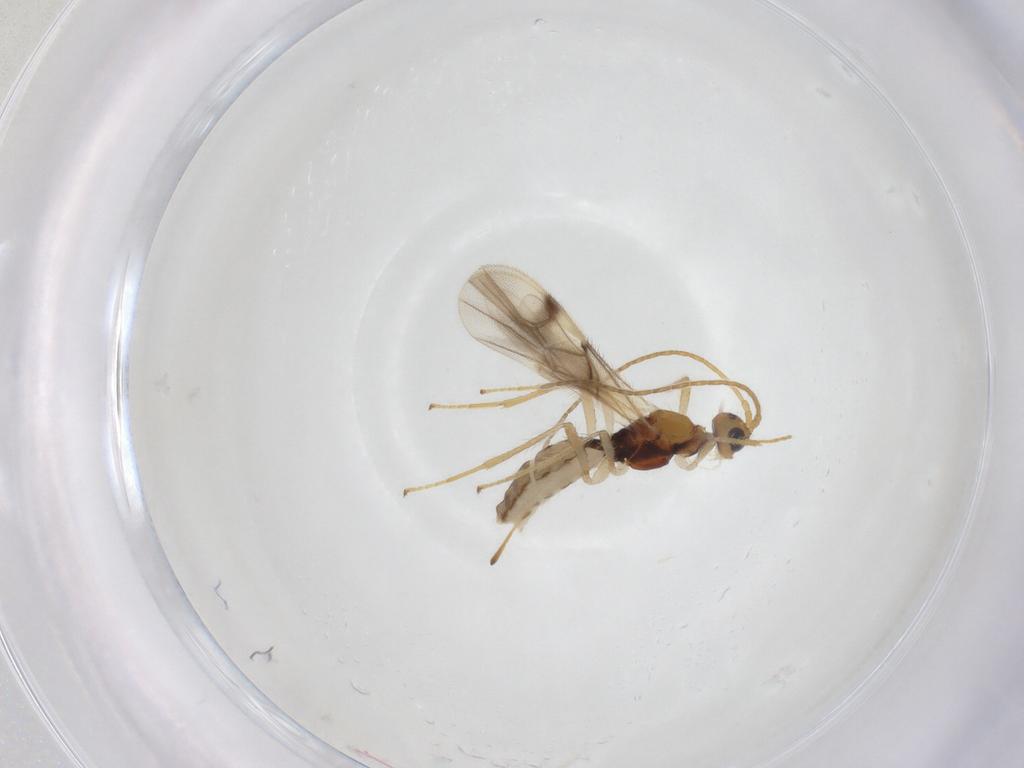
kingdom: Animalia
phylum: Arthropoda
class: Insecta
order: Hymenoptera
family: Braconidae
